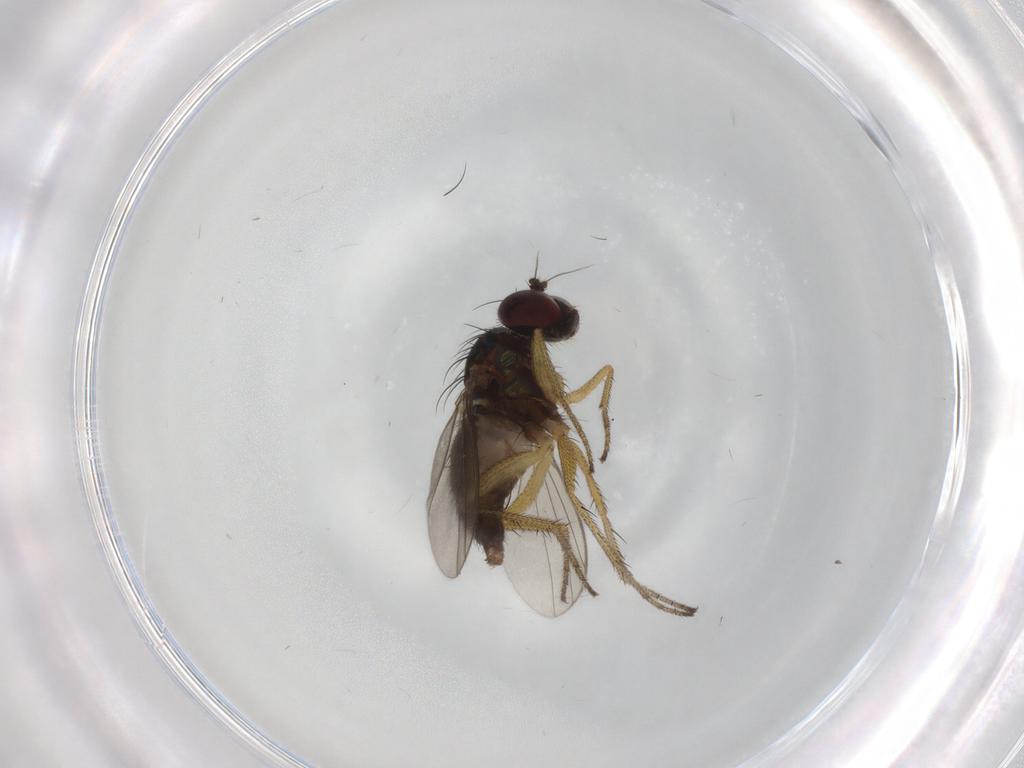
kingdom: Animalia
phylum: Arthropoda
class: Insecta
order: Diptera
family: Dolichopodidae
